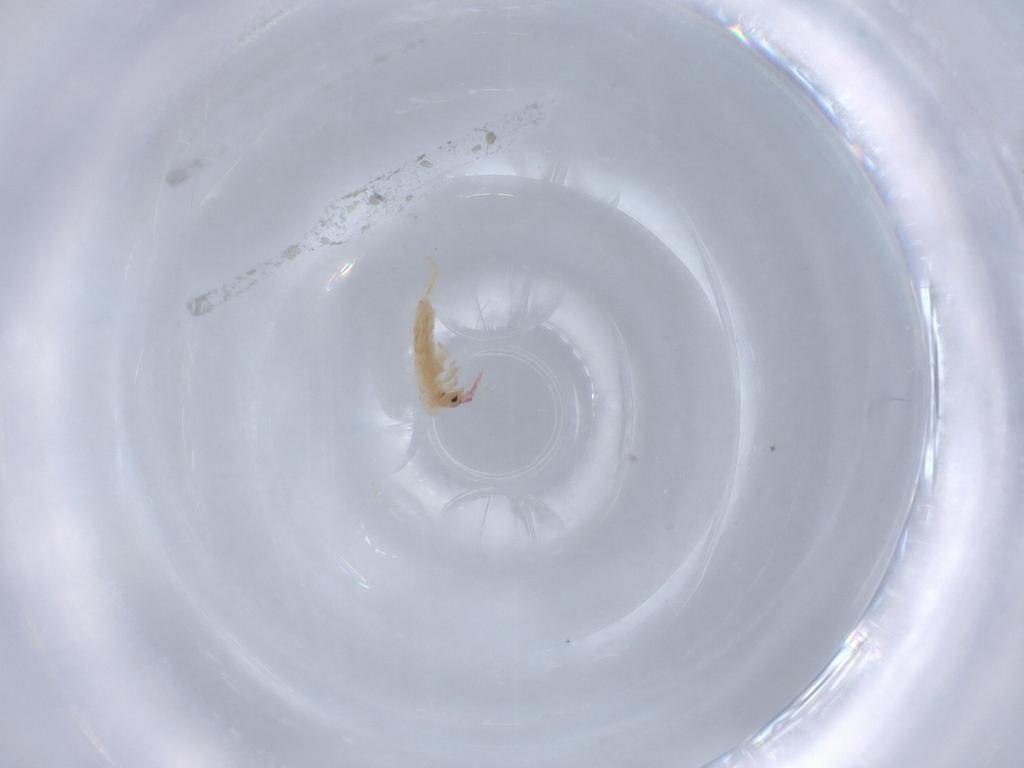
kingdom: Animalia
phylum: Arthropoda
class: Collembola
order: Entomobryomorpha
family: Entomobryidae
